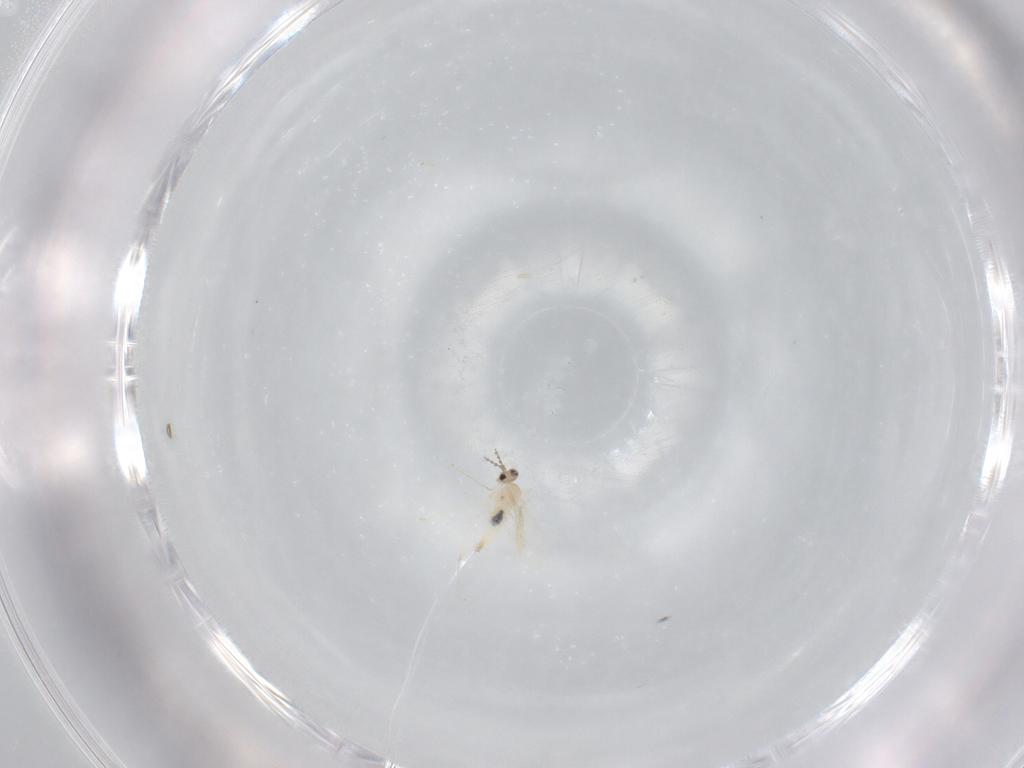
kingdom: Animalia
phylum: Arthropoda
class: Insecta
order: Diptera
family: Cecidomyiidae
